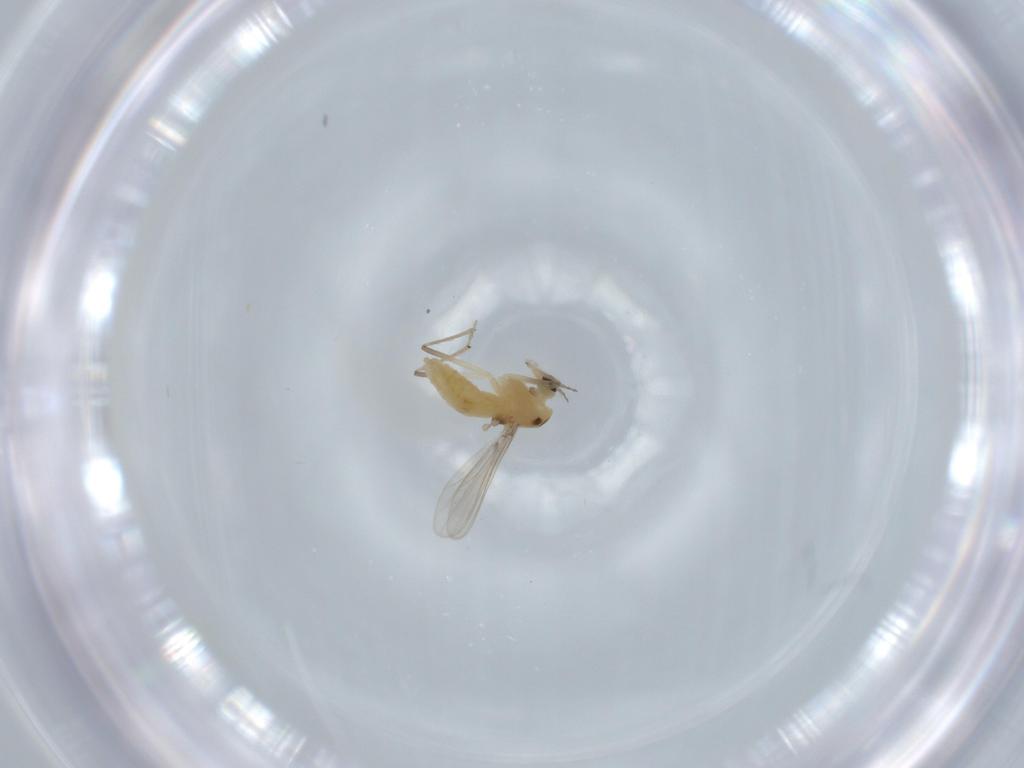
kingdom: Animalia
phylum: Arthropoda
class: Insecta
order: Diptera
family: Chironomidae
